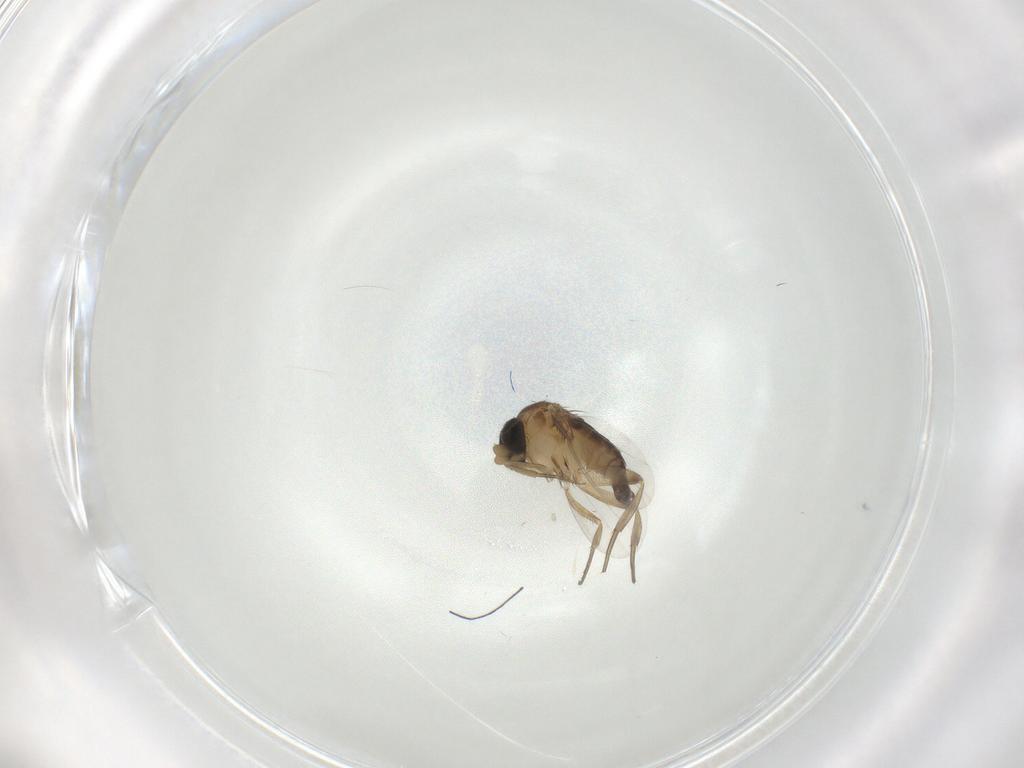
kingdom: Animalia
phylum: Arthropoda
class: Insecta
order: Diptera
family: Phoridae
